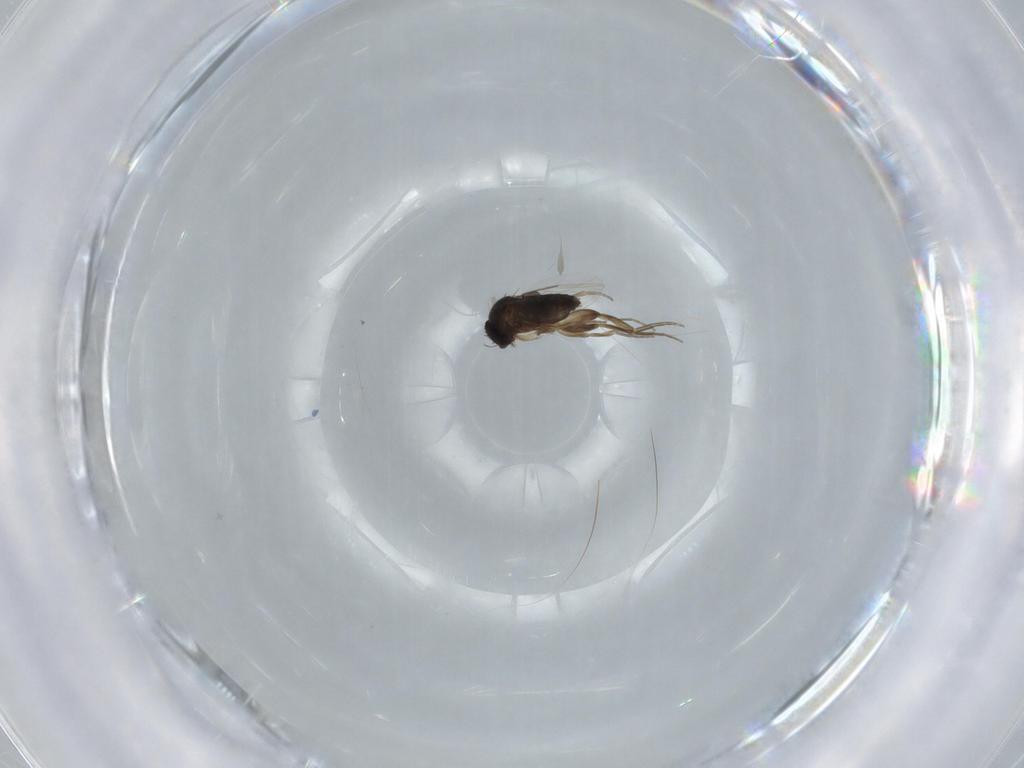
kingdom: Animalia
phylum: Arthropoda
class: Insecta
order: Diptera
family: Phoridae
